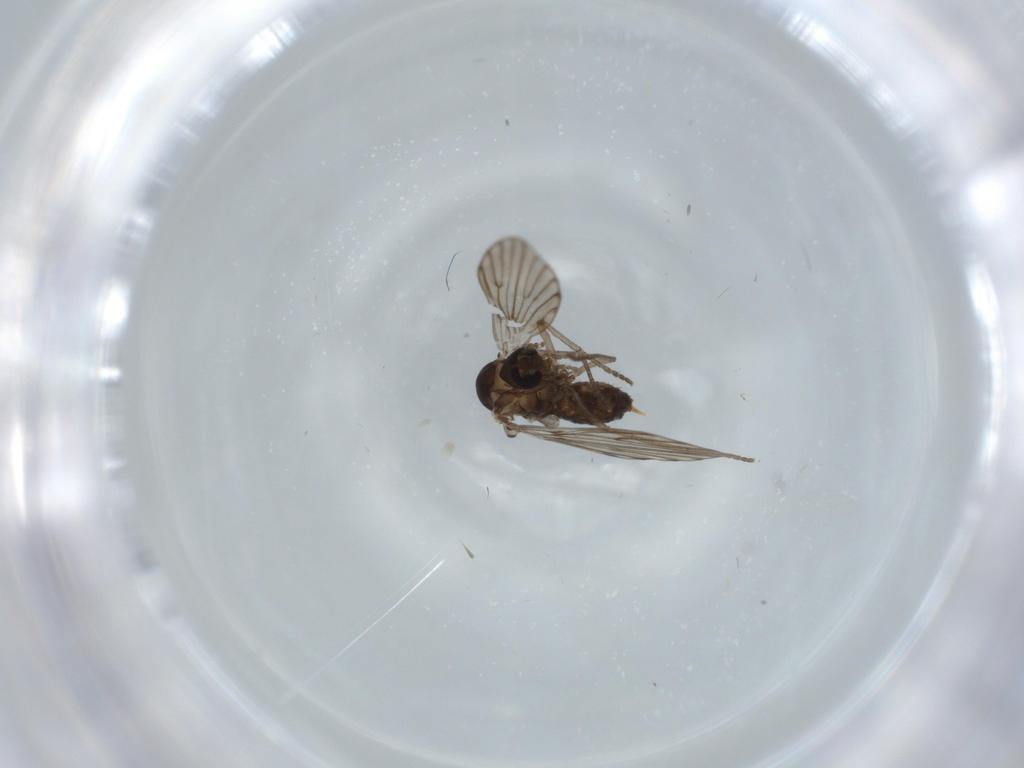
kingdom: Animalia
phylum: Arthropoda
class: Insecta
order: Diptera
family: Psychodidae
